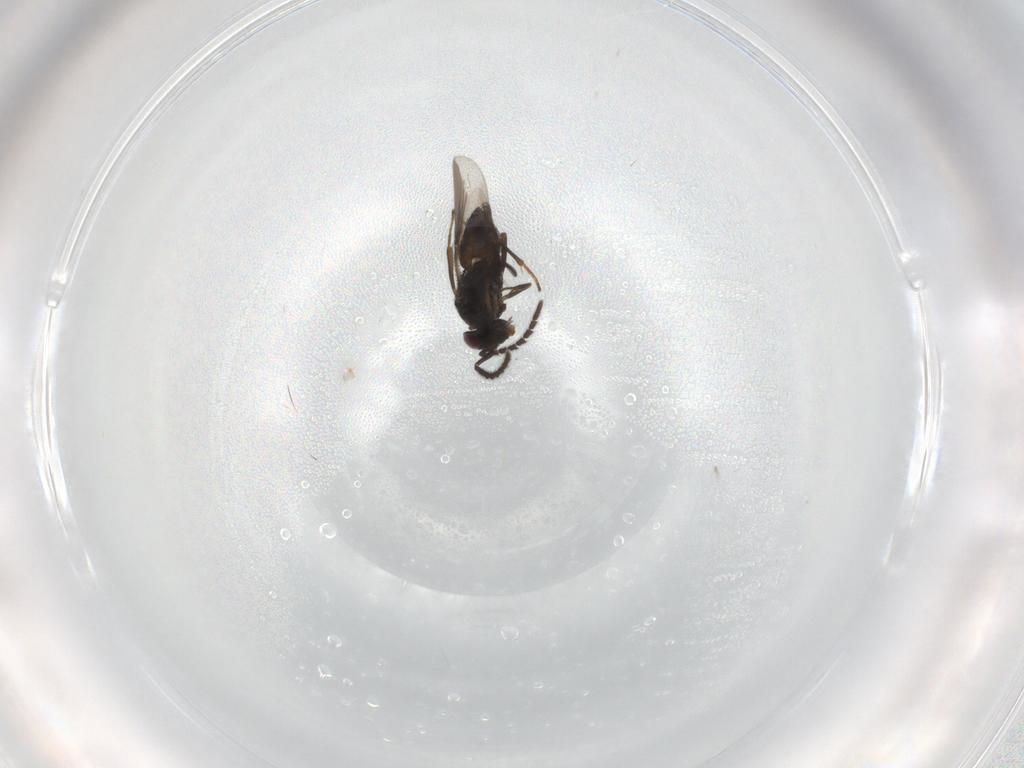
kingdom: Animalia
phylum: Arthropoda
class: Insecta
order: Hymenoptera
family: Encyrtidae
